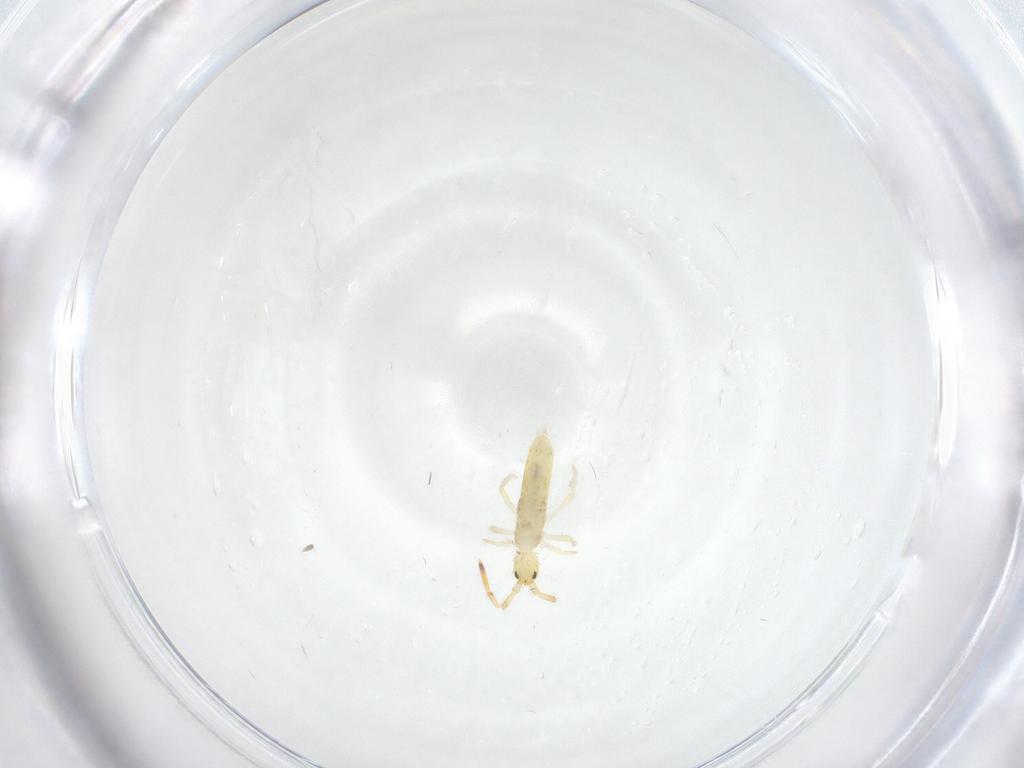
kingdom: Animalia
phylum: Arthropoda
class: Collembola
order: Entomobryomorpha
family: Entomobryidae
